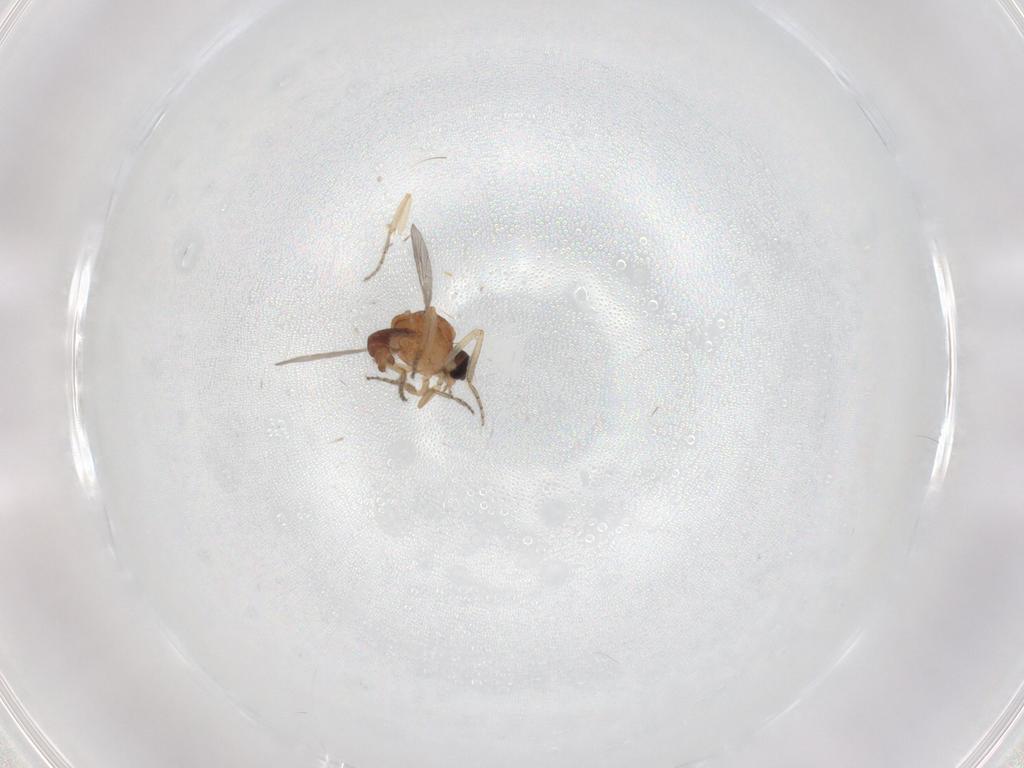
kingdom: Animalia
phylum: Arthropoda
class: Insecta
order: Diptera
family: Ceratopogonidae
